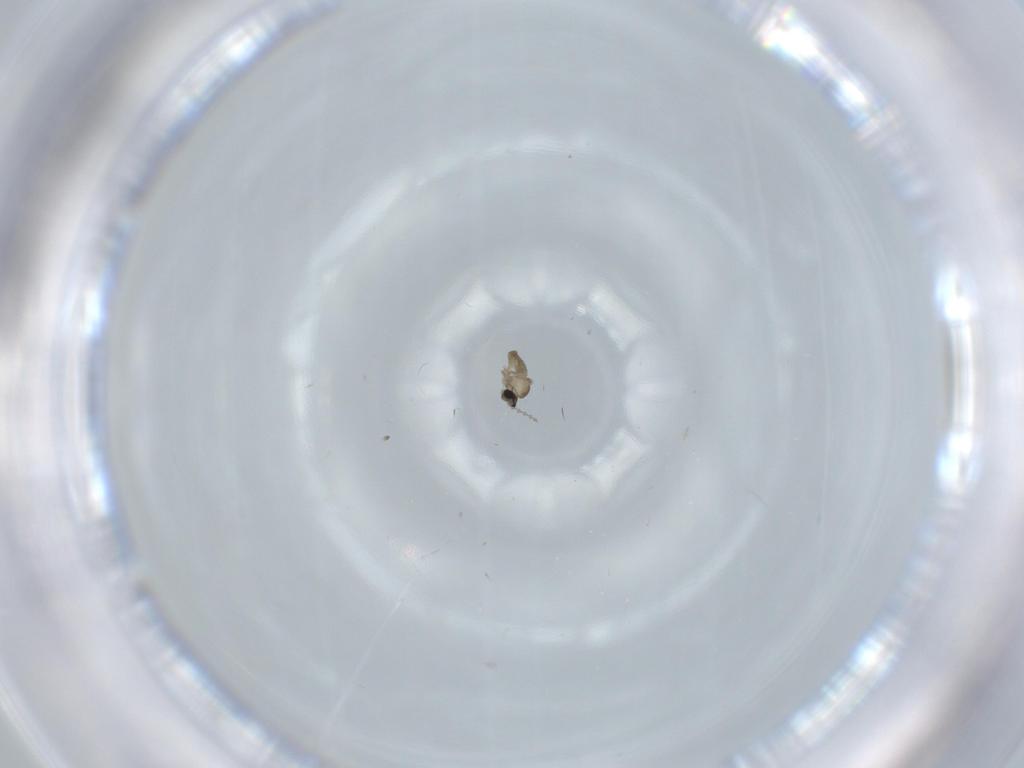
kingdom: Animalia
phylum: Arthropoda
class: Insecta
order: Diptera
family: Cecidomyiidae
